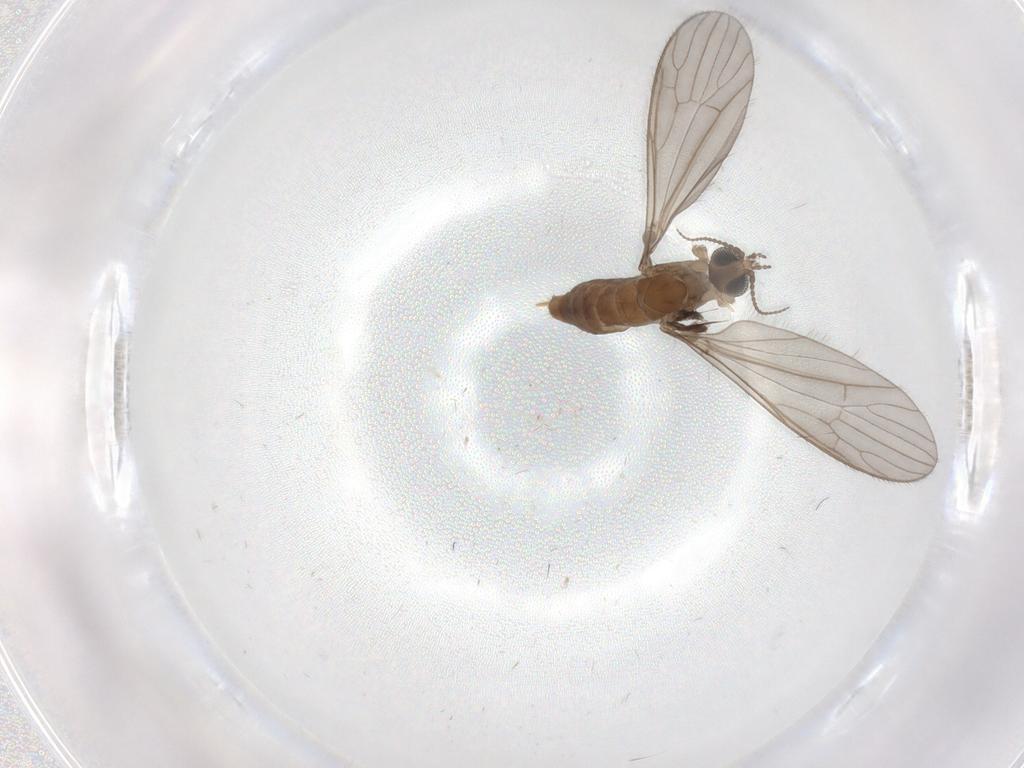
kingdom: Animalia
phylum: Arthropoda
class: Insecta
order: Diptera
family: Limoniidae
